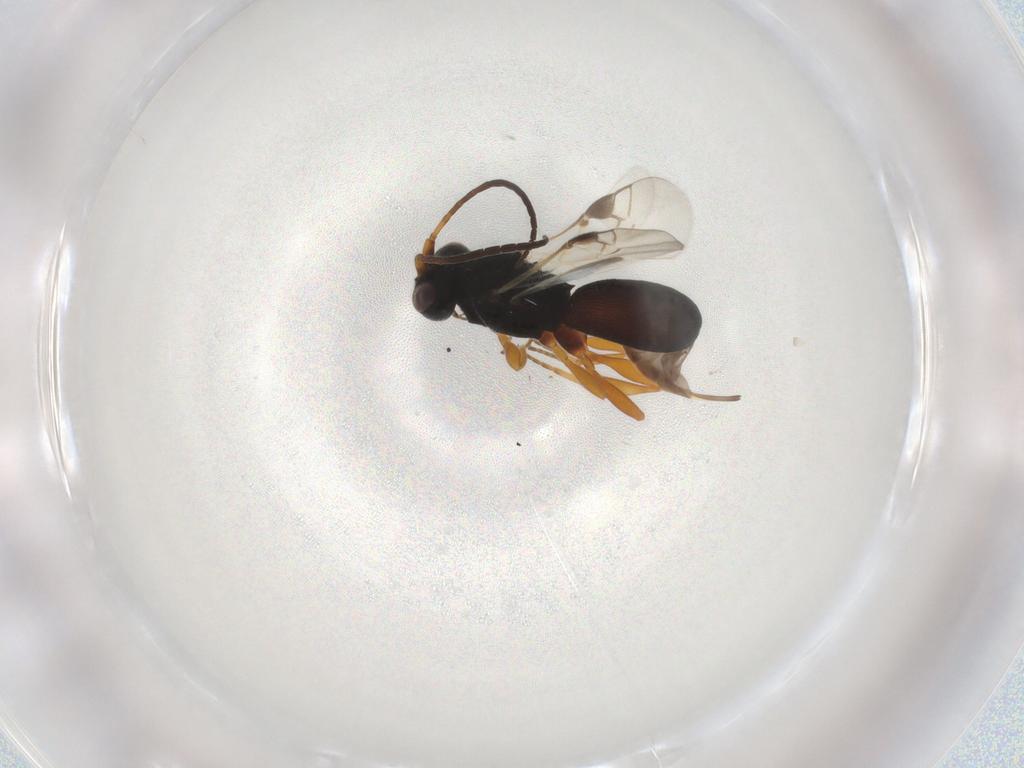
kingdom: Animalia
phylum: Arthropoda
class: Insecta
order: Hymenoptera
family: Braconidae
